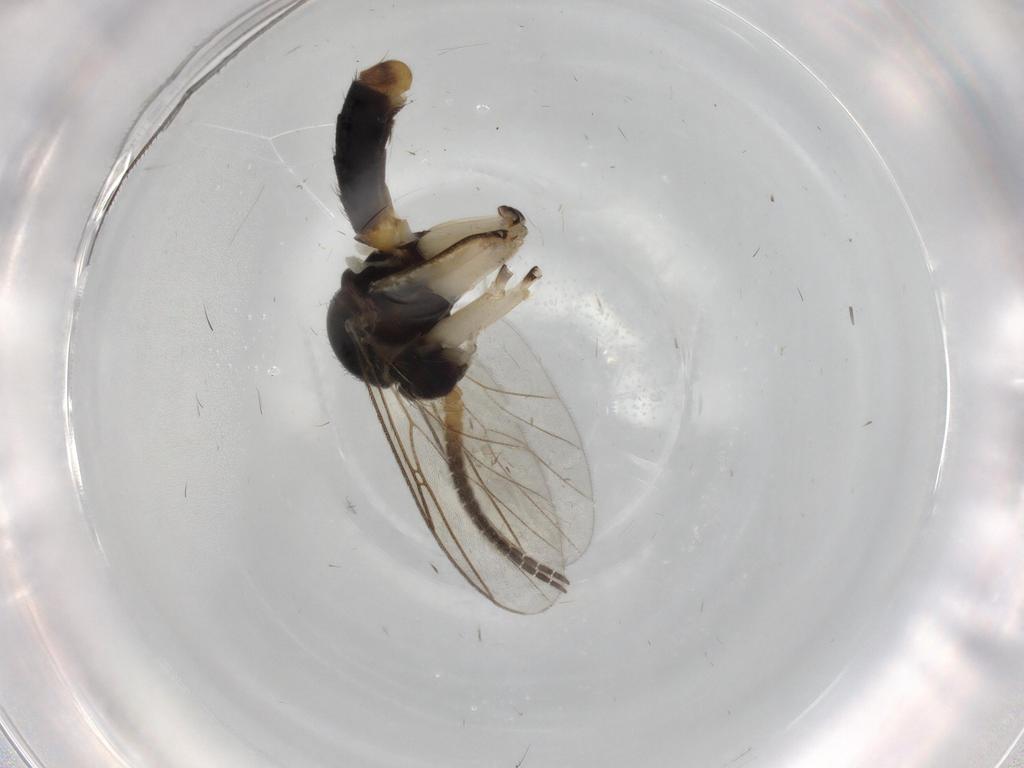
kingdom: Animalia
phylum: Arthropoda
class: Insecta
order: Diptera
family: Mycetophilidae
